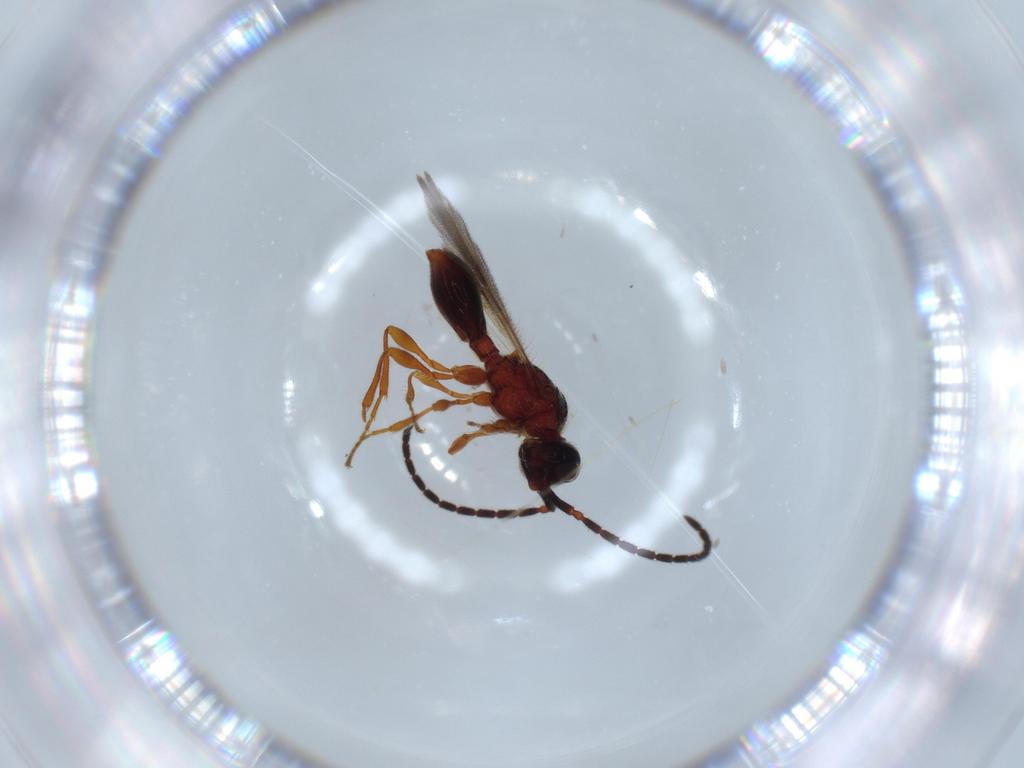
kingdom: Animalia
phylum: Arthropoda
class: Insecta
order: Hymenoptera
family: Diapriidae
